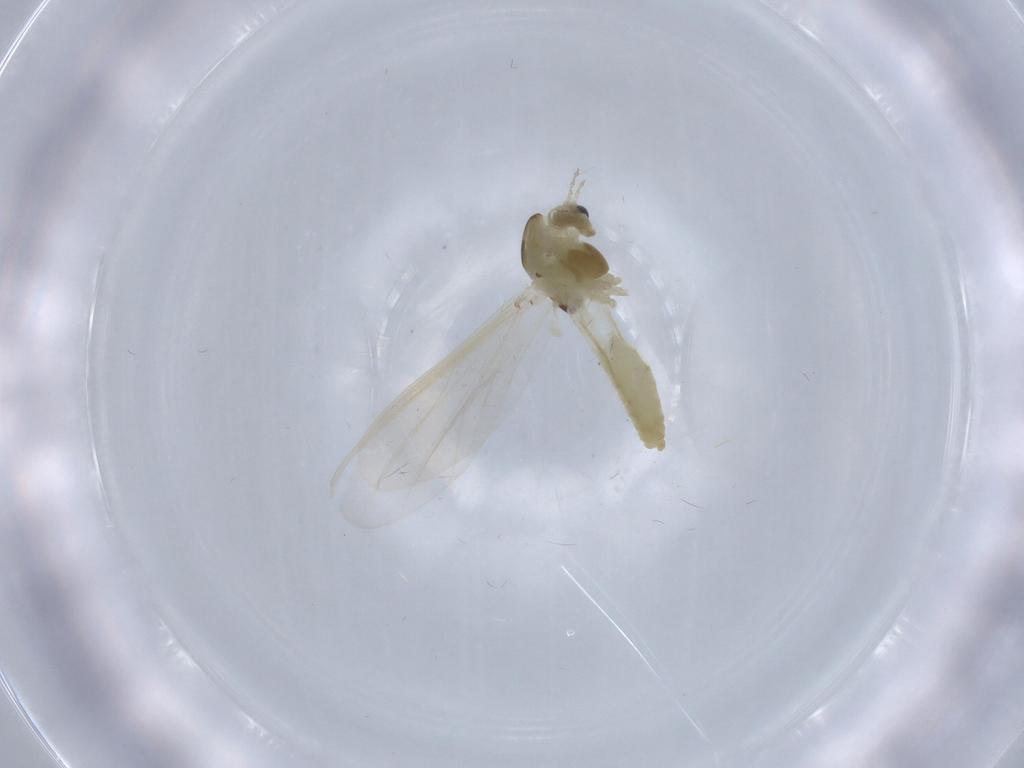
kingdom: Animalia
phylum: Arthropoda
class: Insecta
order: Diptera
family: Chironomidae
